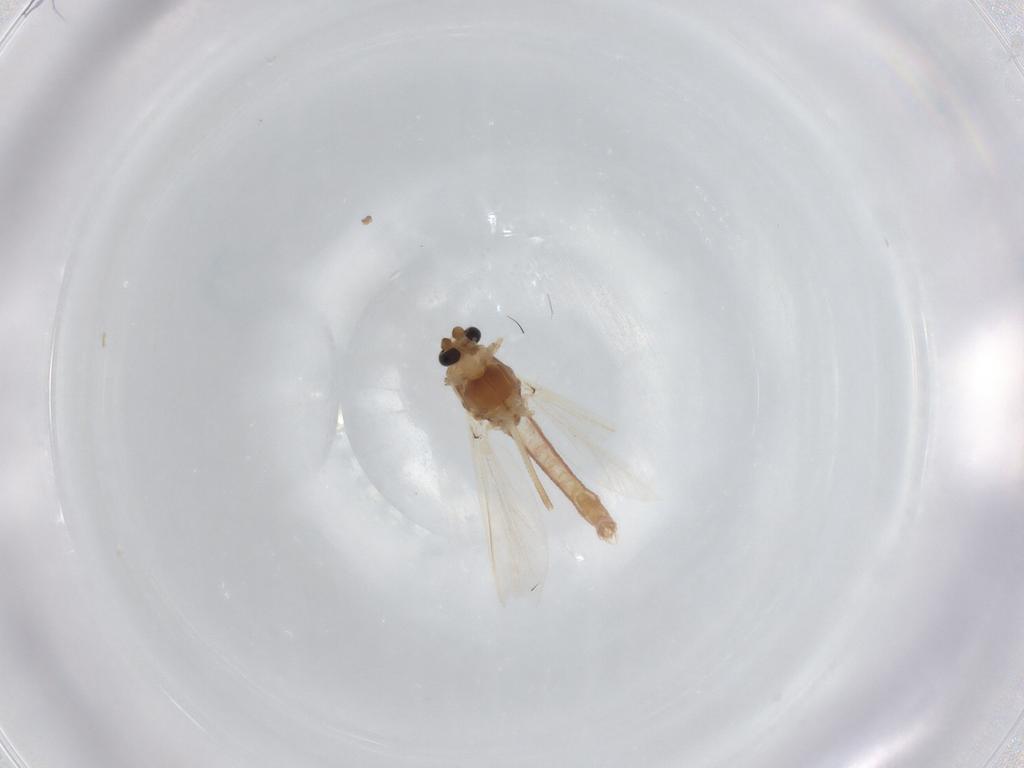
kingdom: Animalia
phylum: Arthropoda
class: Insecta
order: Diptera
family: Chironomidae
